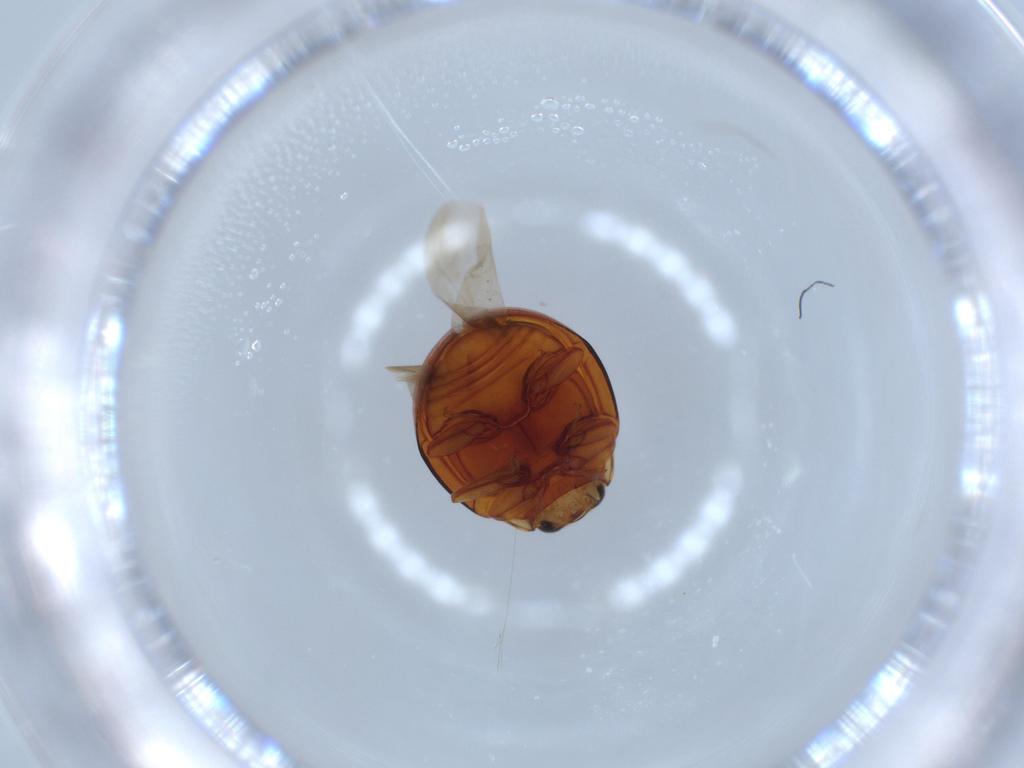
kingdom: Animalia
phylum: Arthropoda
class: Insecta
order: Coleoptera
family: Coccinellidae
